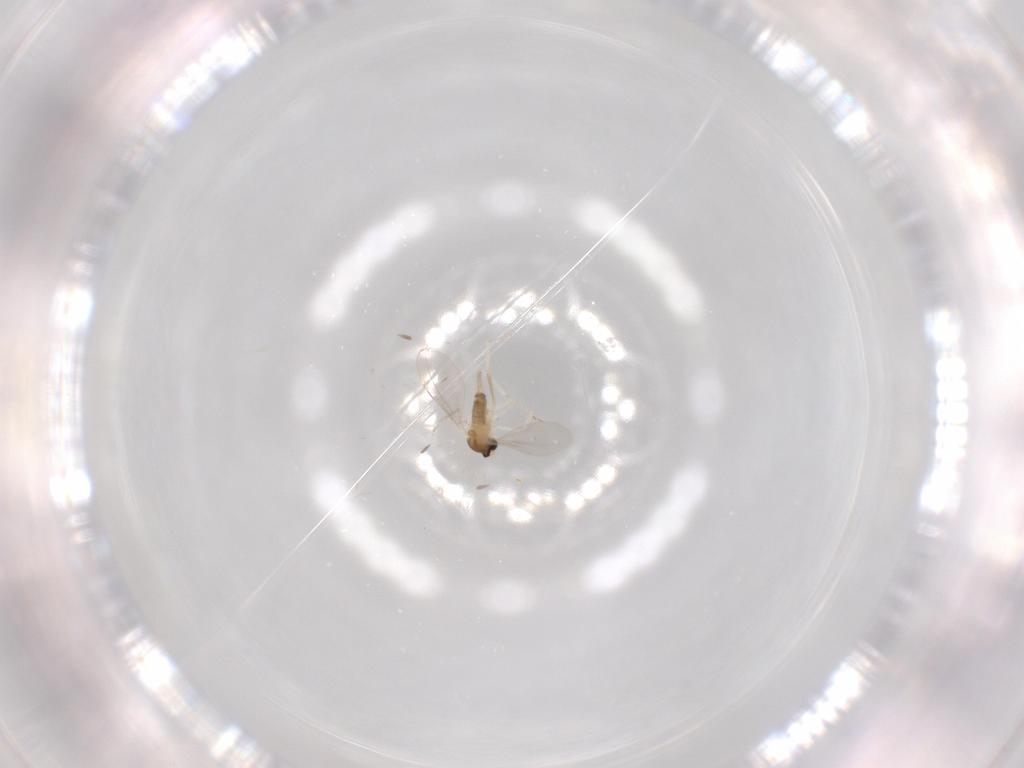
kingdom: Animalia
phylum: Arthropoda
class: Insecta
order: Diptera
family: Cecidomyiidae
